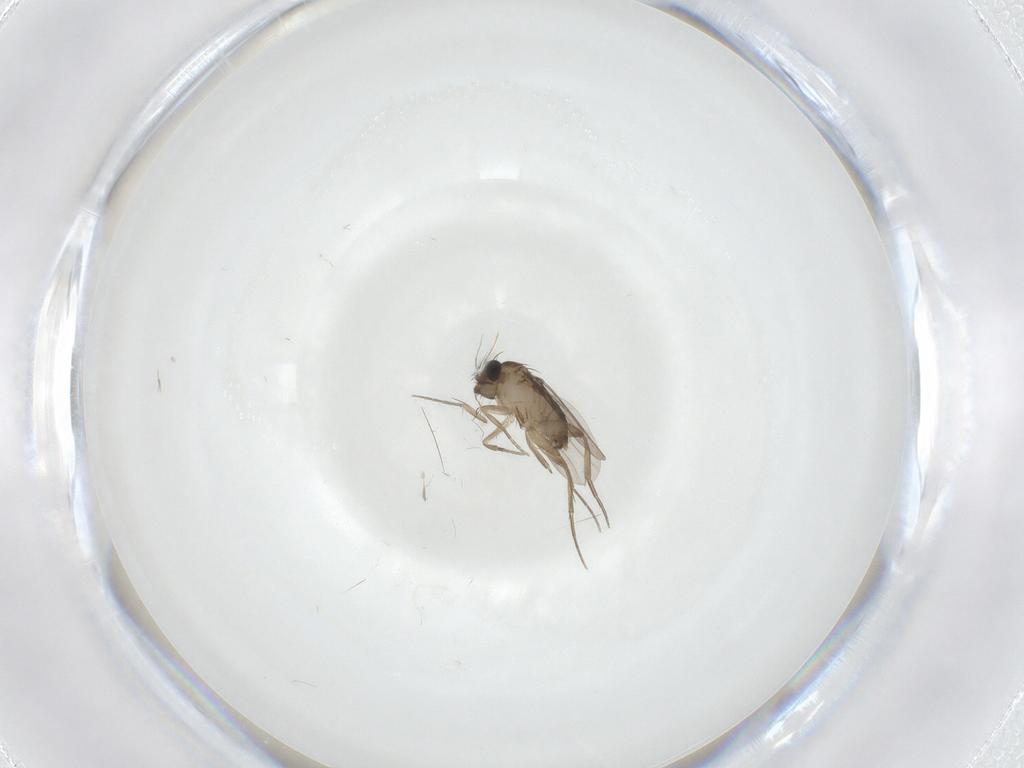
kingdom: Animalia
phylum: Arthropoda
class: Insecta
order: Diptera
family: Phoridae
